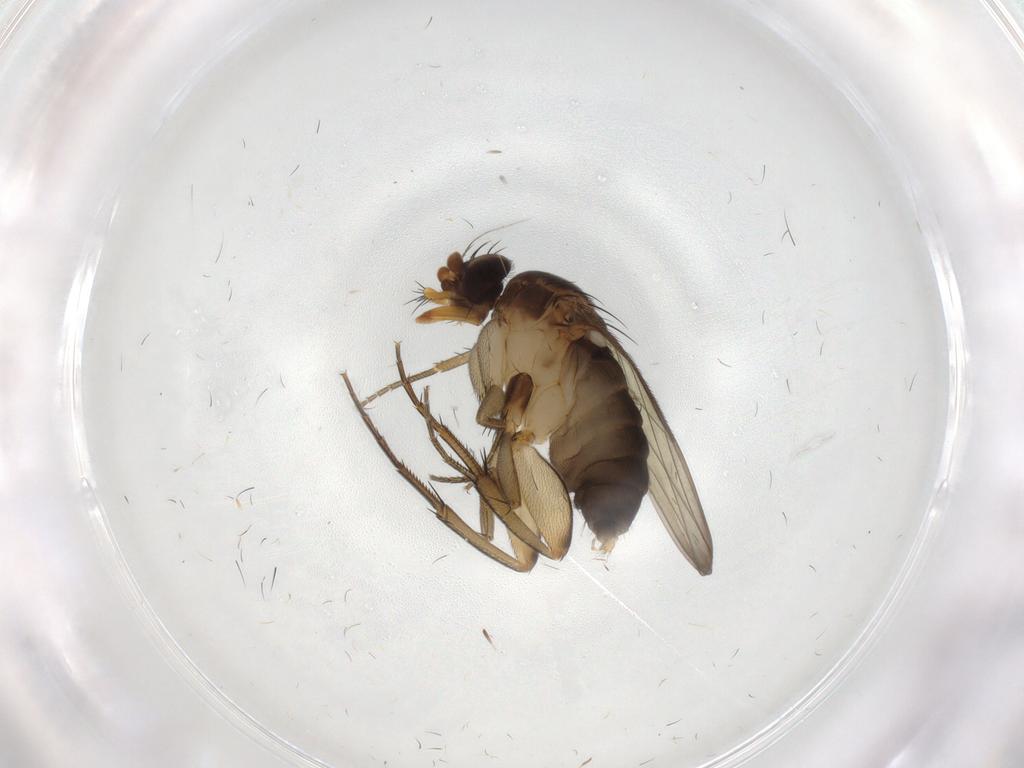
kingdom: Animalia
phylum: Arthropoda
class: Insecta
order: Diptera
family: Phoridae
